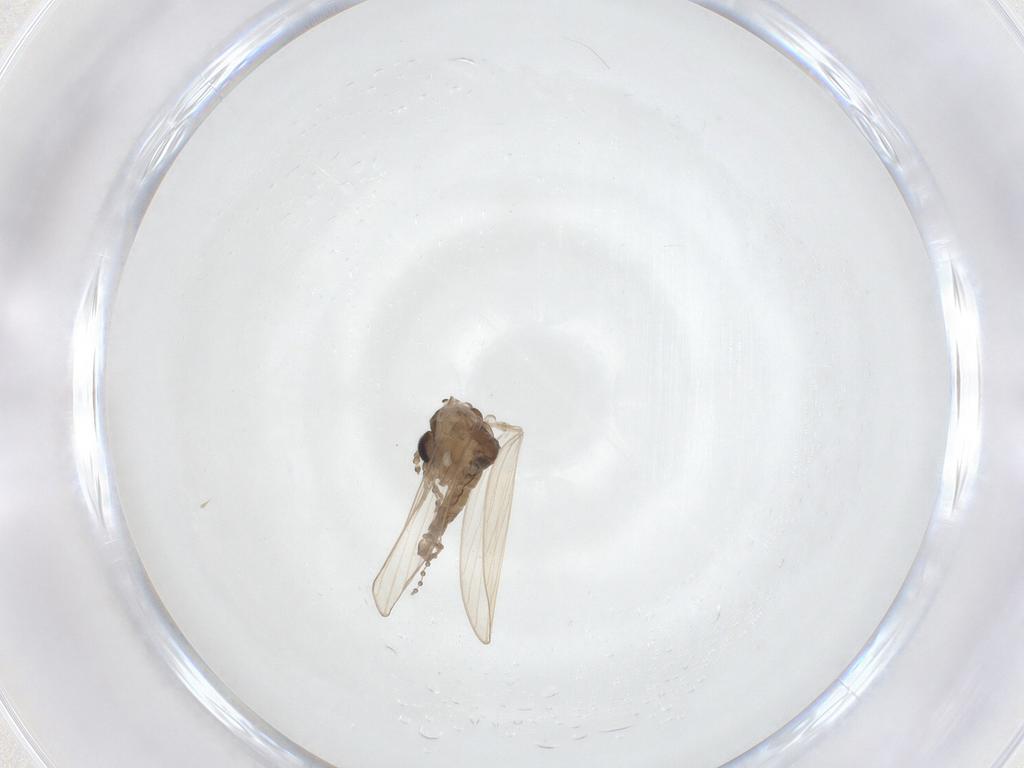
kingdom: Animalia
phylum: Arthropoda
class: Insecta
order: Diptera
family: Psychodidae
